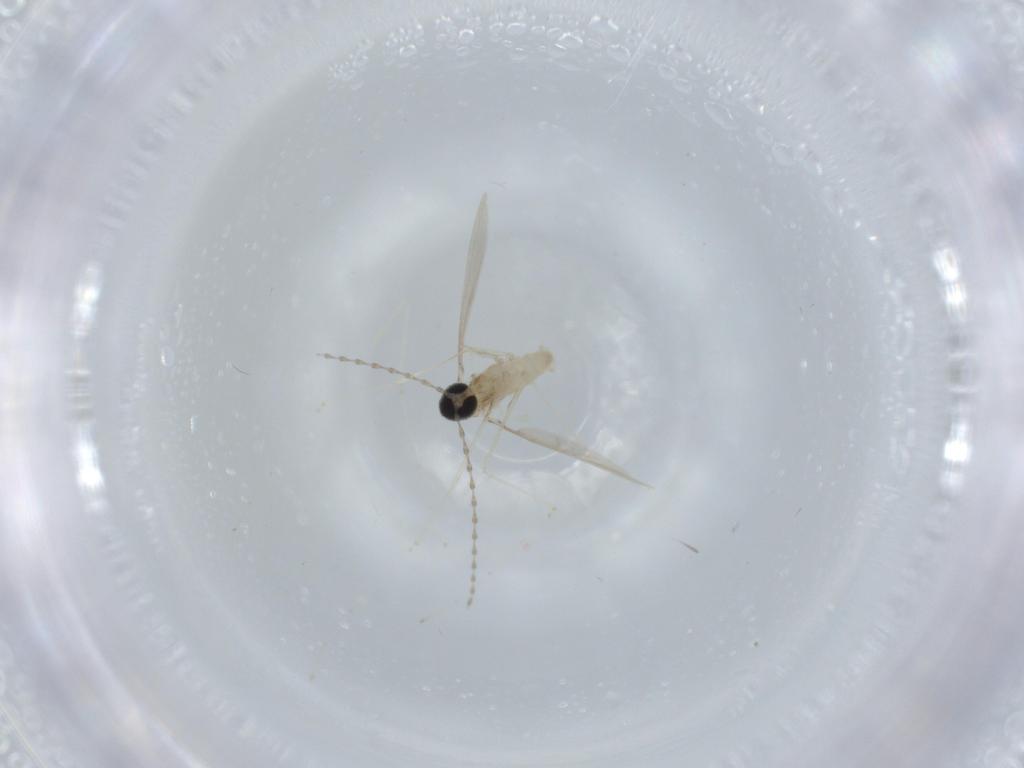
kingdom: Animalia
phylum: Arthropoda
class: Insecta
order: Diptera
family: Cecidomyiidae
